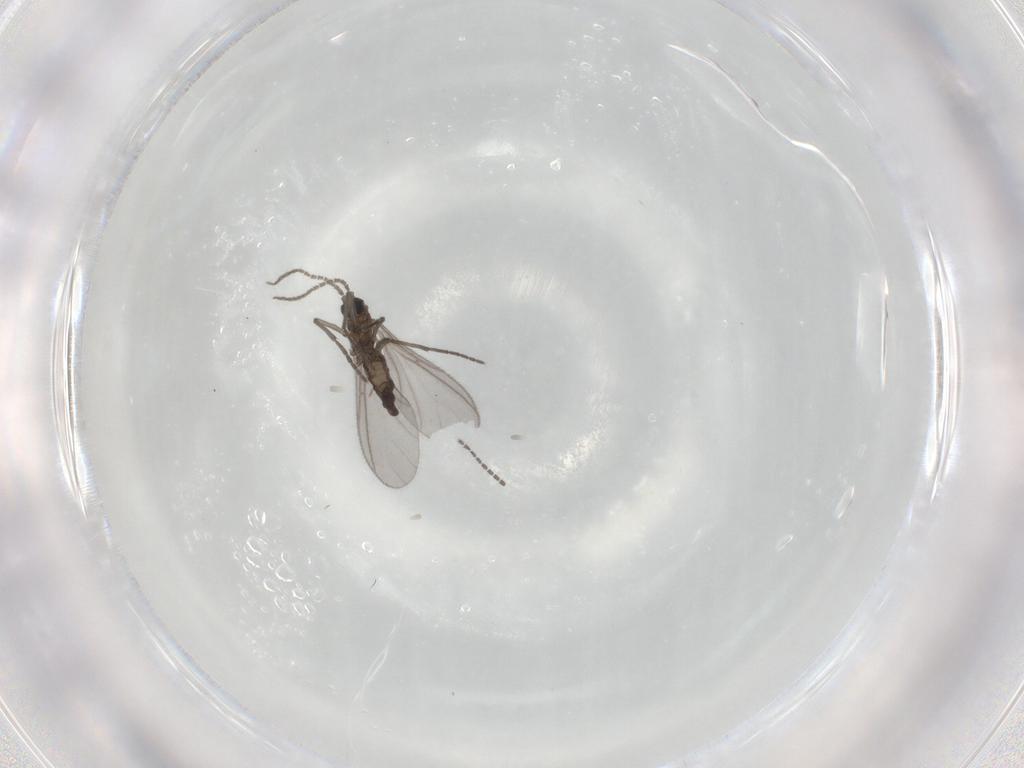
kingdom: Animalia
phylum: Arthropoda
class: Insecta
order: Diptera
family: Sciaridae
